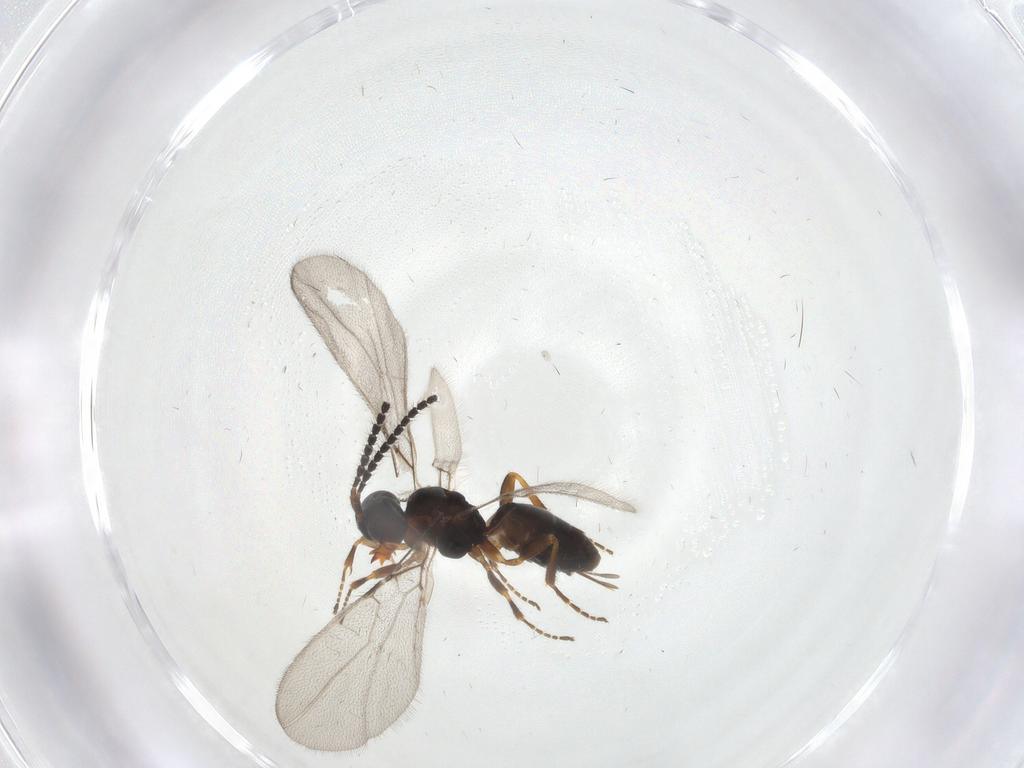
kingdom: Animalia
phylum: Arthropoda
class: Insecta
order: Hymenoptera
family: Braconidae
